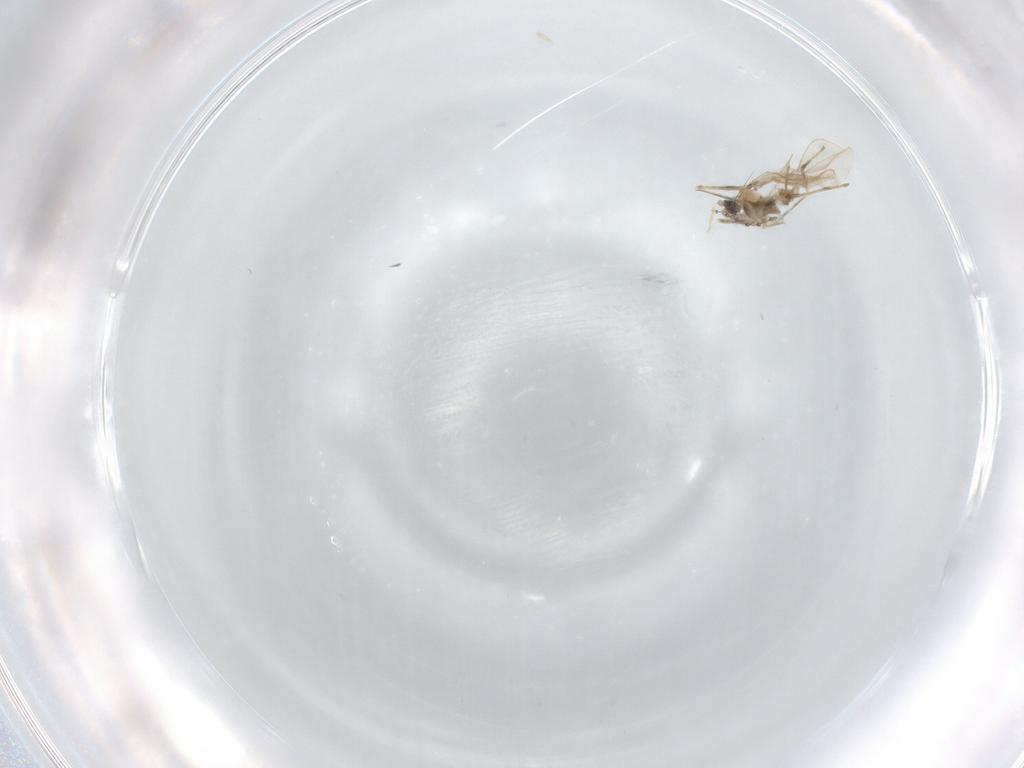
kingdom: Animalia
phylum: Arthropoda
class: Insecta
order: Diptera
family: Cecidomyiidae
